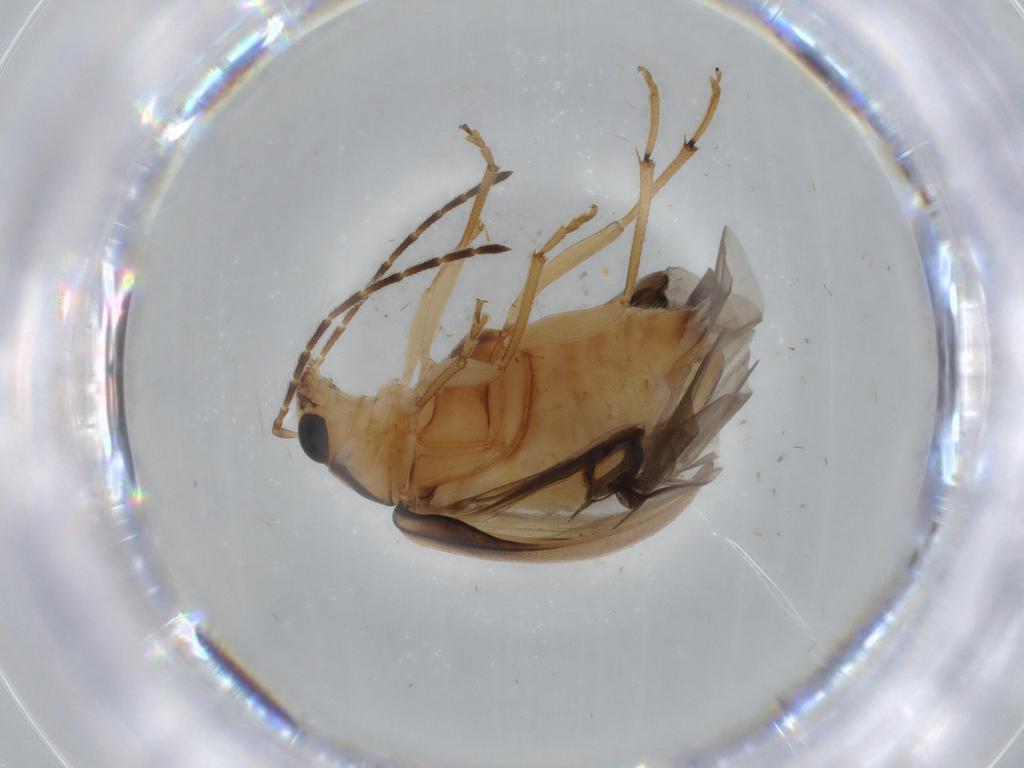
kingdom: Animalia
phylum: Arthropoda
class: Insecta
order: Coleoptera
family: Chrysomelidae
